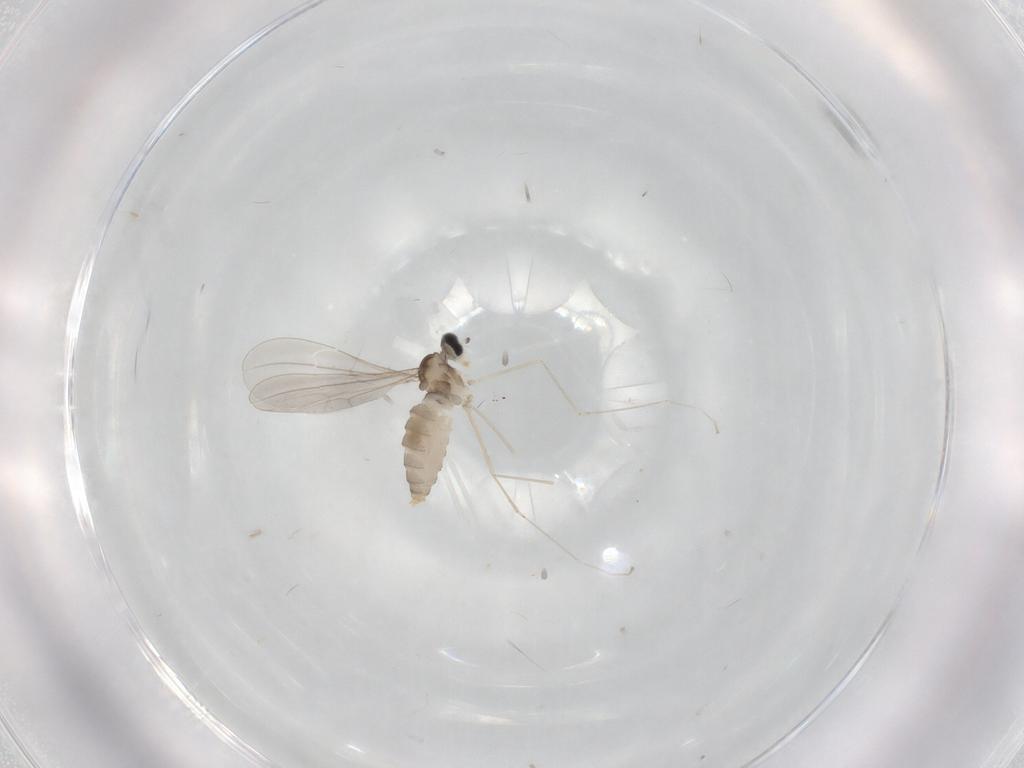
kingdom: Animalia
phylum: Arthropoda
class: Insecta
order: Diptera
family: Cecidomyiidae
